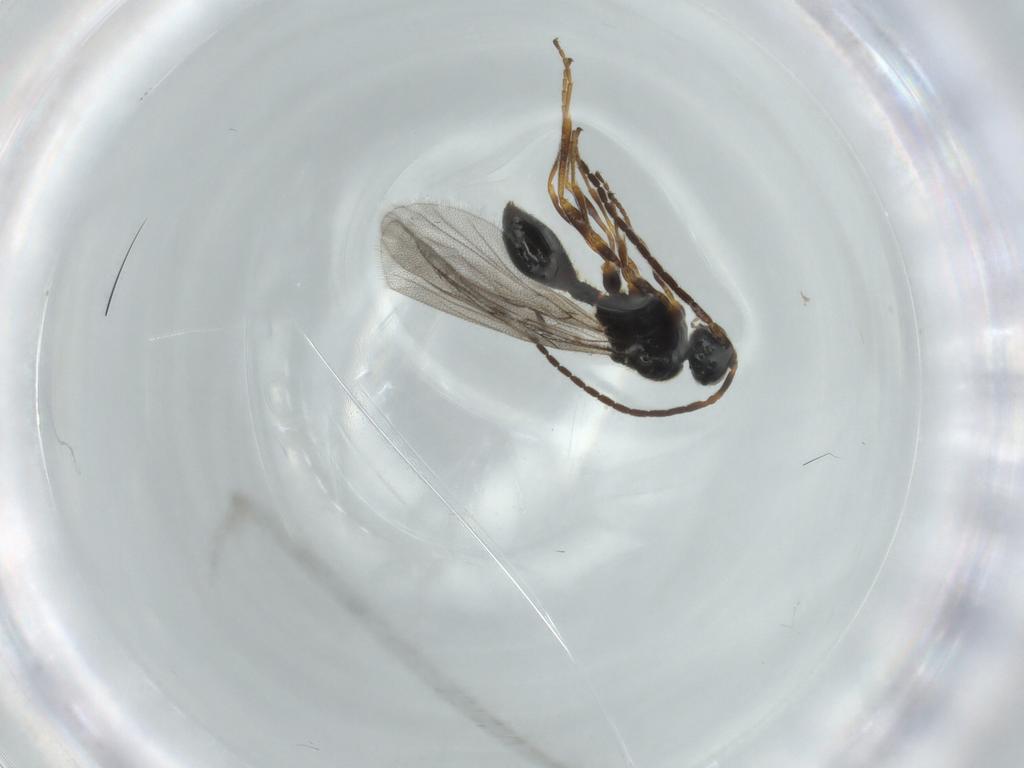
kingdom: Animalia
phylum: Arthropoda
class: Insecta
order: Hymenoptera
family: Diapriidae
